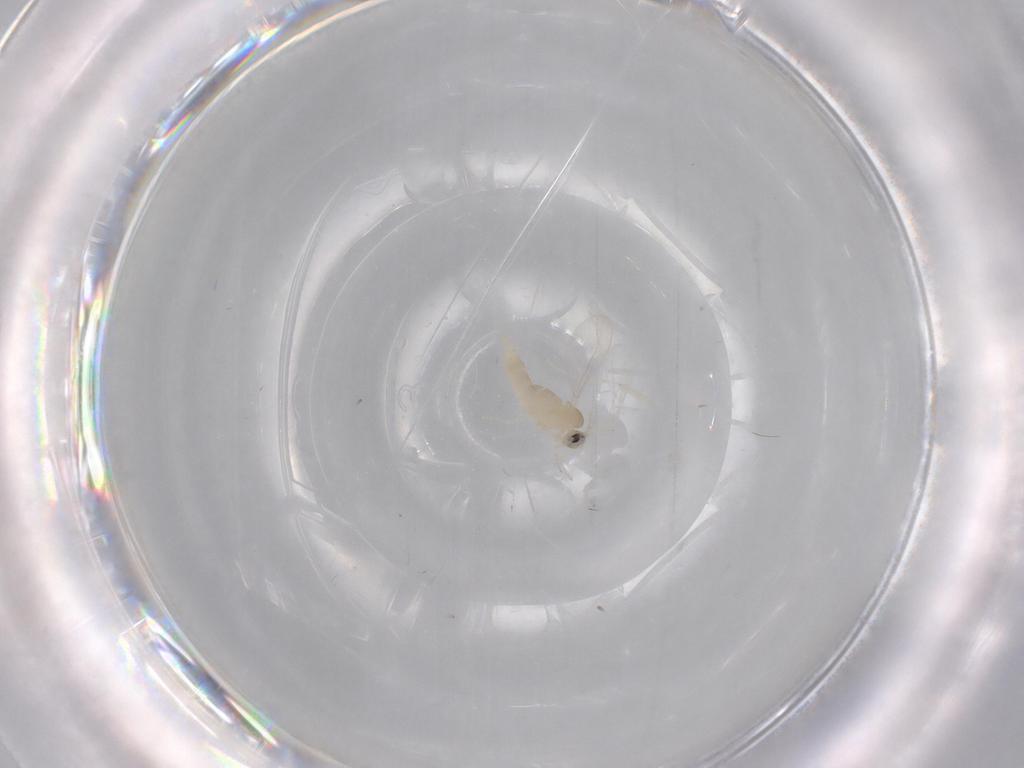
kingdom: Animalia
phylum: Arthropoda
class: Insecta
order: Diptera
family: Cecidomyiidae
